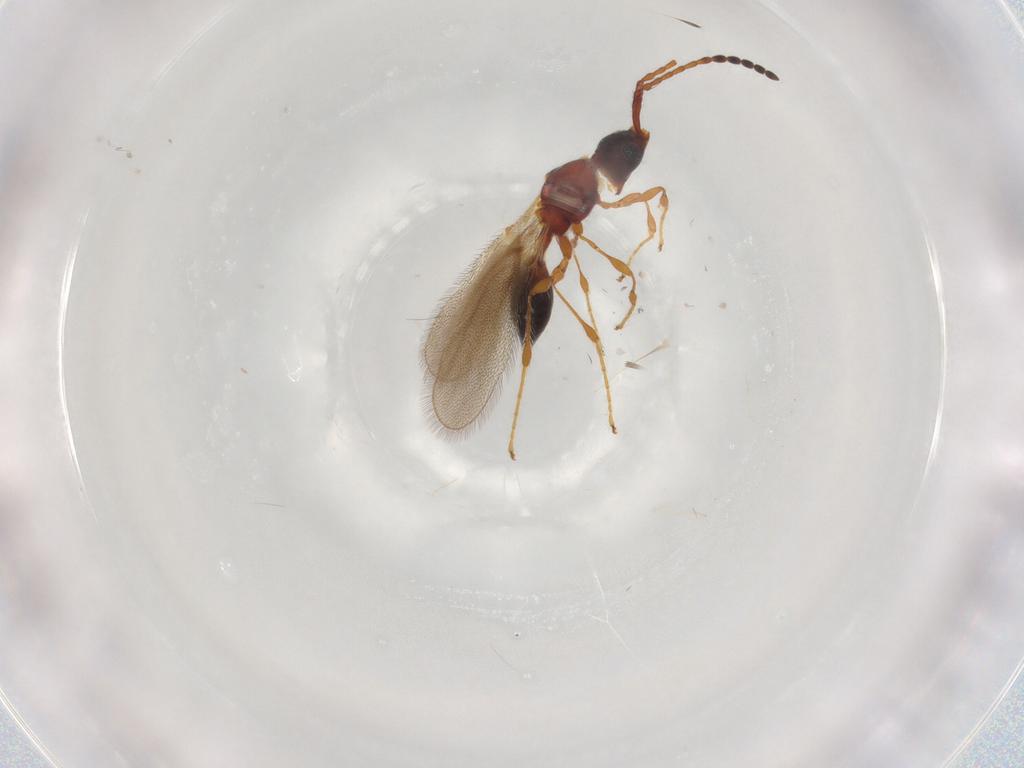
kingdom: Animalia
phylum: Arthropoda
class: Insecta
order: Hymenoptera
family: Diapriidae
